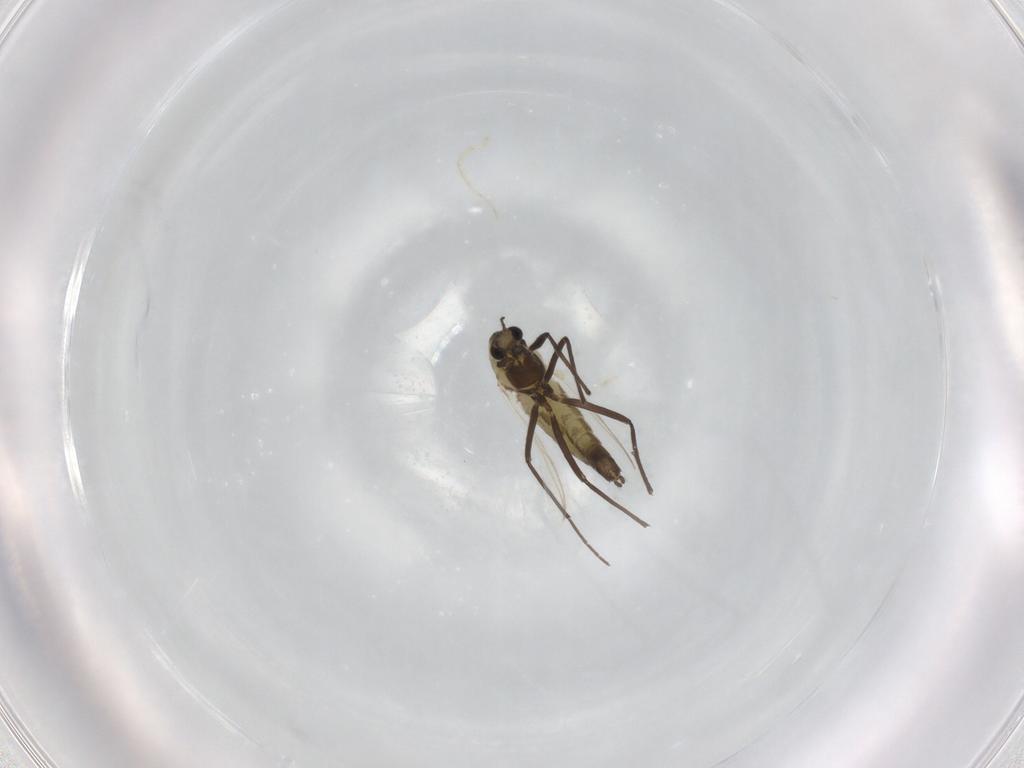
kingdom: Animalia
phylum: Arthropoda
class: Insecta
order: Diptera
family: Chironomidae
